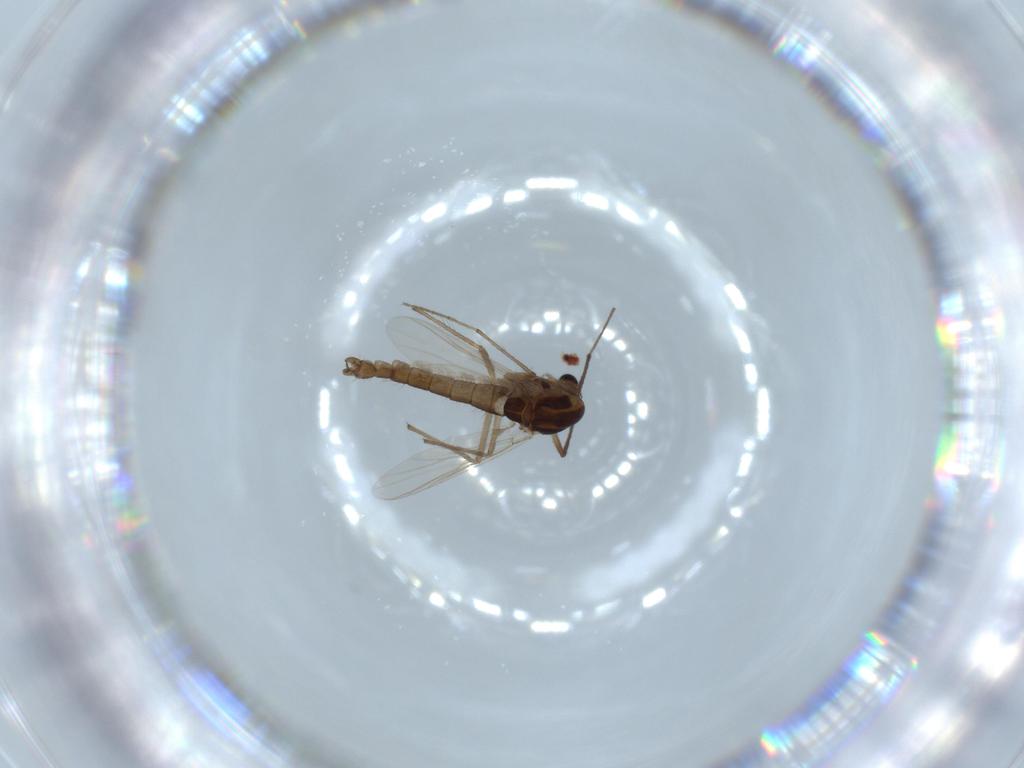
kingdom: Animalia
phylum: Arthropoda
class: Insecta
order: Diptera
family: Chironomidae
